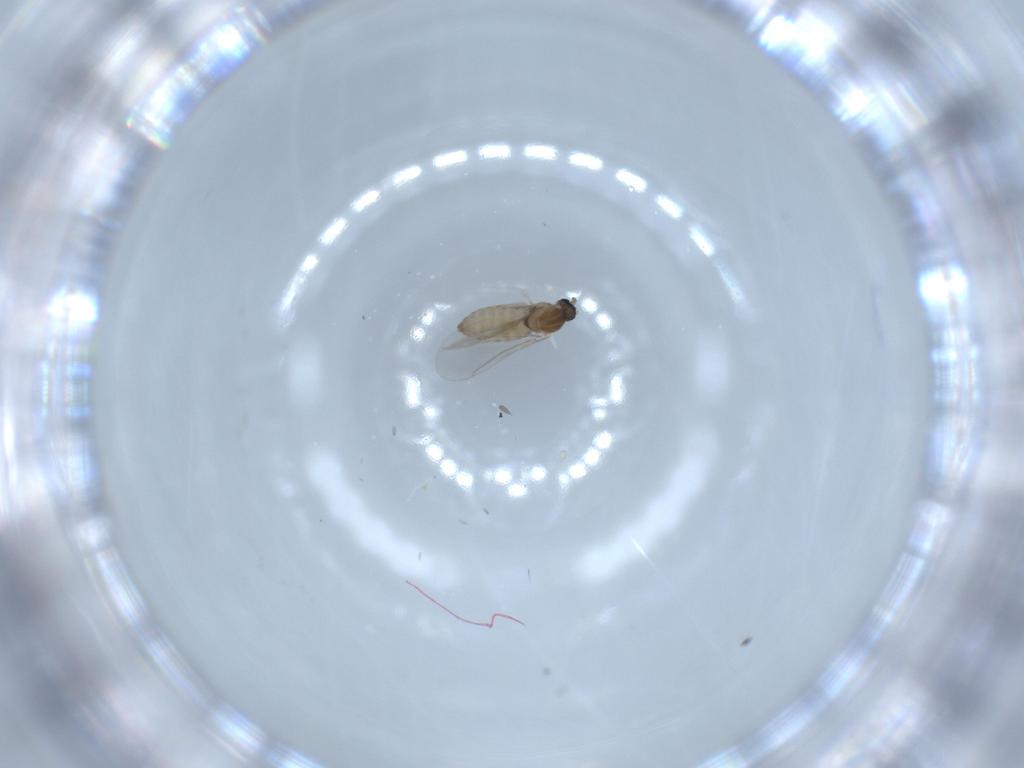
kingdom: Animalia
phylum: Arthropoda
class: Insecta
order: Diptera
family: Cecidomyiidae
